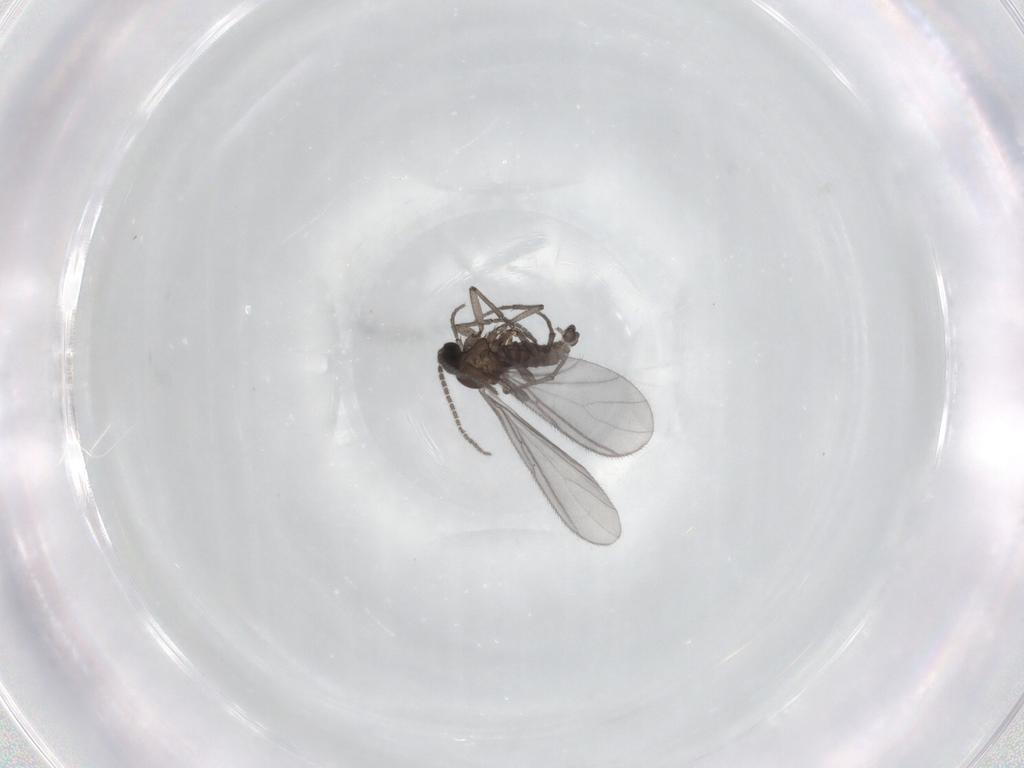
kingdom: Animalia
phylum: Arthropoda
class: Insecta
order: Diptera
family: Sciaridae
